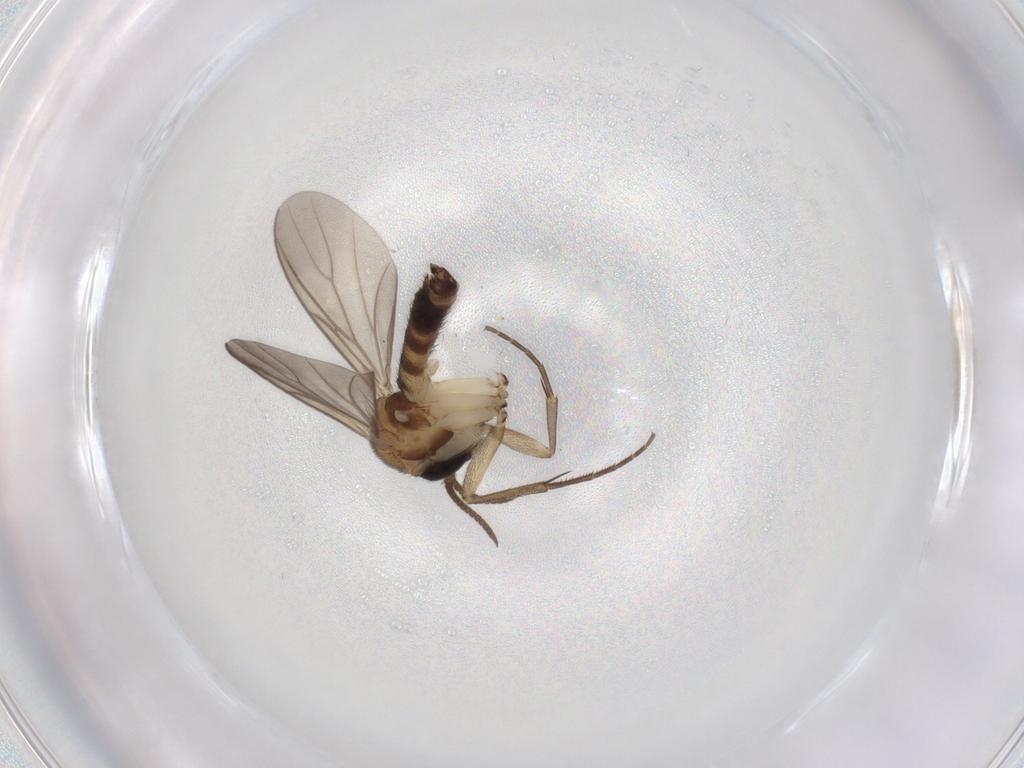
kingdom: Animalia
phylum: Arthropoda
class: Insecta
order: Diptera
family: Mycetophilidae
